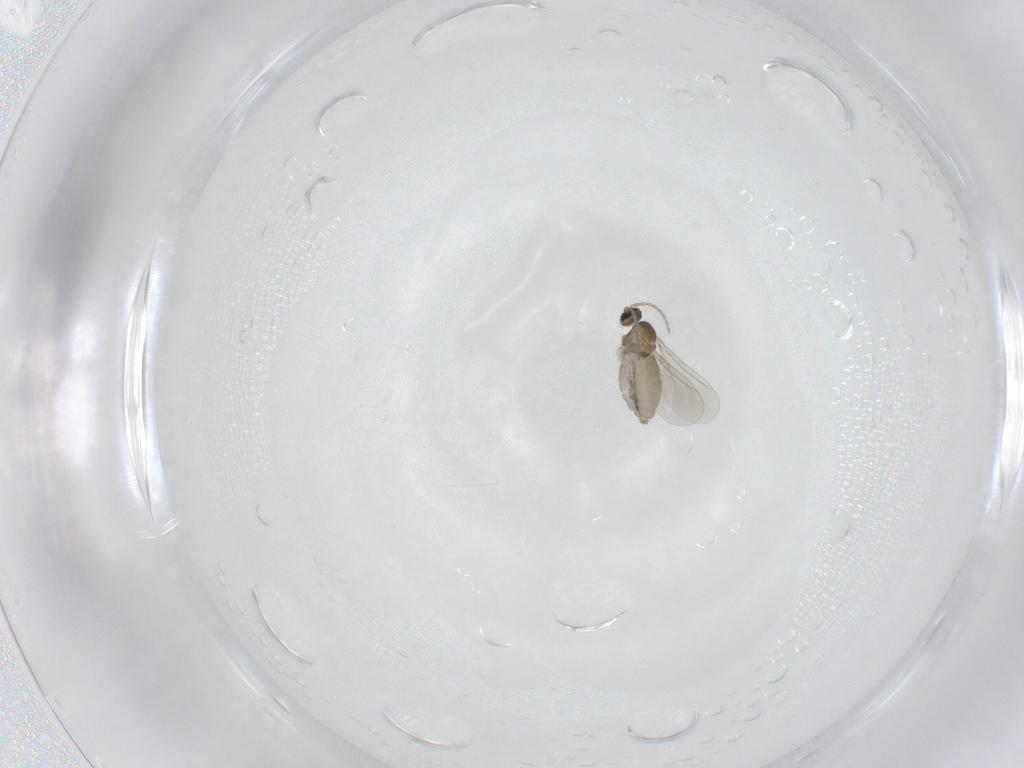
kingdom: Animalia
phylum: Arthropoda
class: Insecta
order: Diptera
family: Cecidomyiidae
